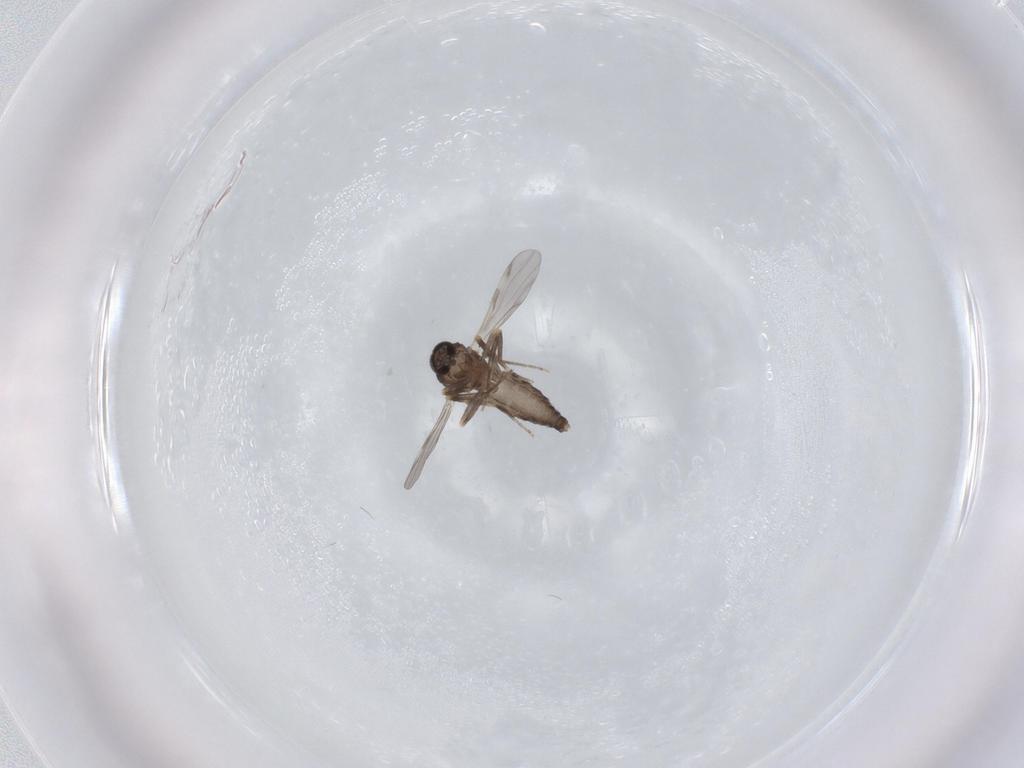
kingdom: Animalia
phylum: Arthropoda
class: Insecta
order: Diptera
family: Ceratopogonidae
